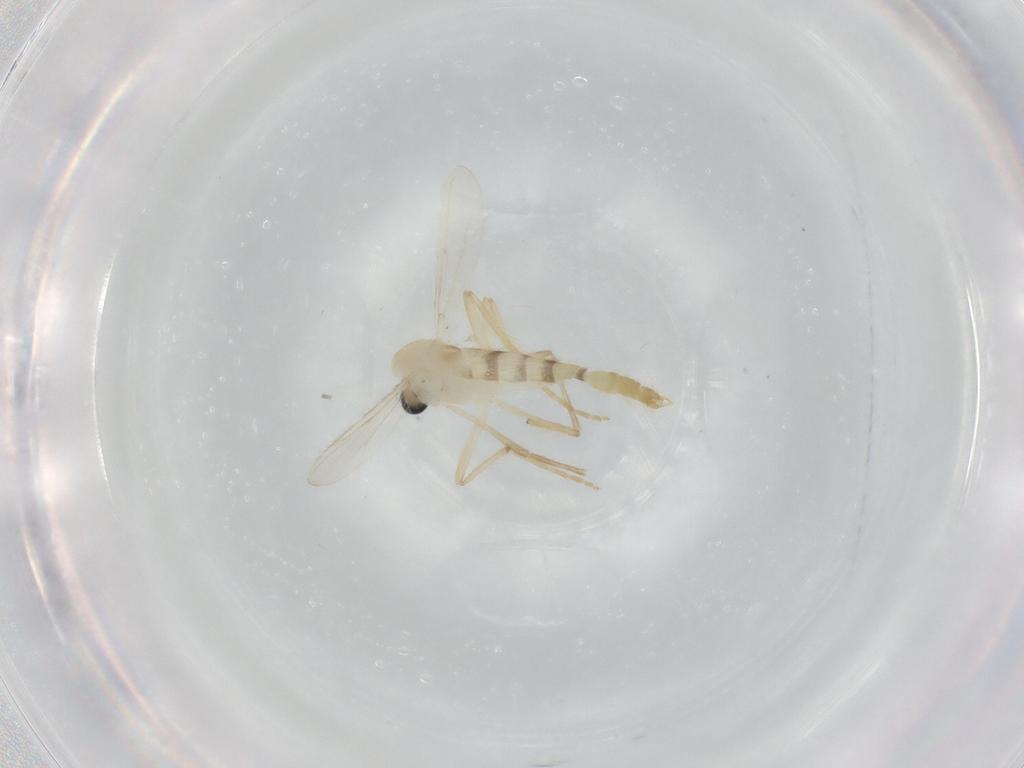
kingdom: Animalia
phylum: Arthropoda
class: Insecta
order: Diptera
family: Chironomidae
